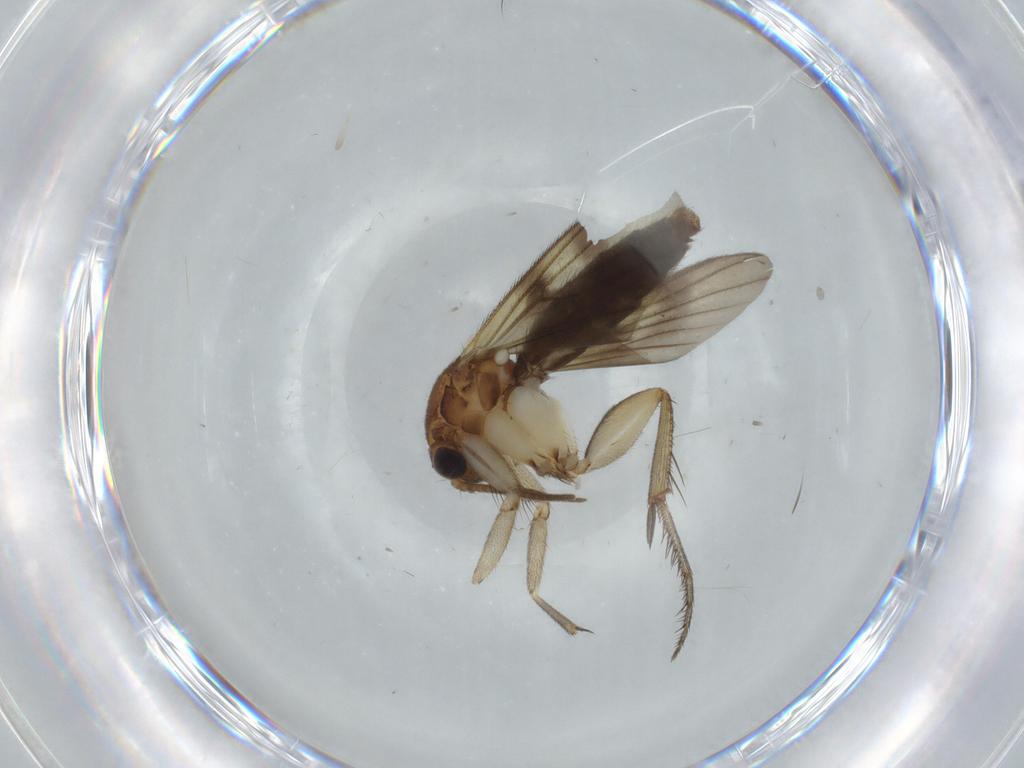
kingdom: Animalia
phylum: Arthropoda
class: Insecta
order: Diptera
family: Mycetophilidae
